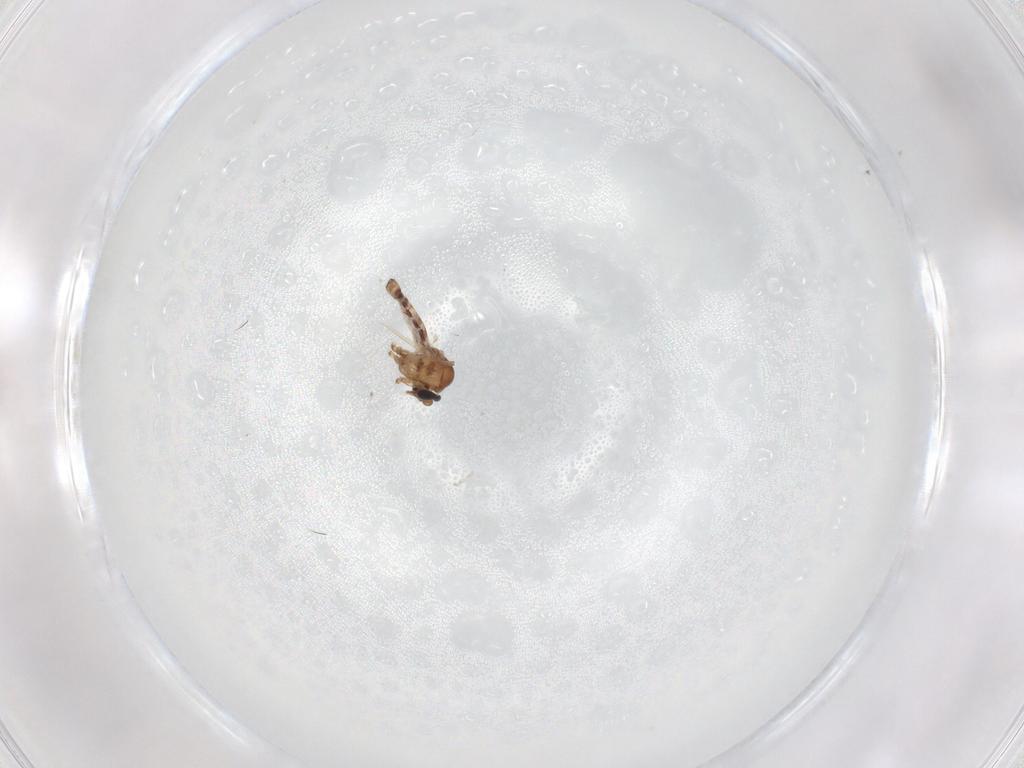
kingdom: Animalia
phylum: Arthropoda
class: Insecta
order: Diptera
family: Ceratopogonidae
